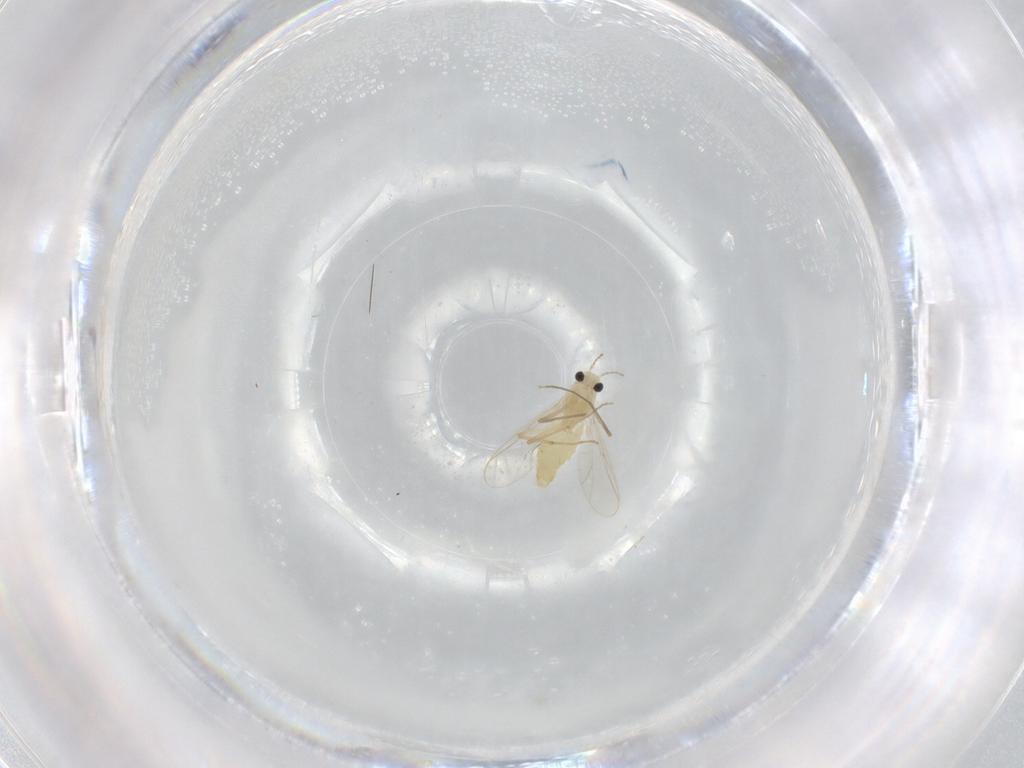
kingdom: Animalia
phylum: Arthropoda
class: Insecta
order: Diptera
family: Chironomidae
